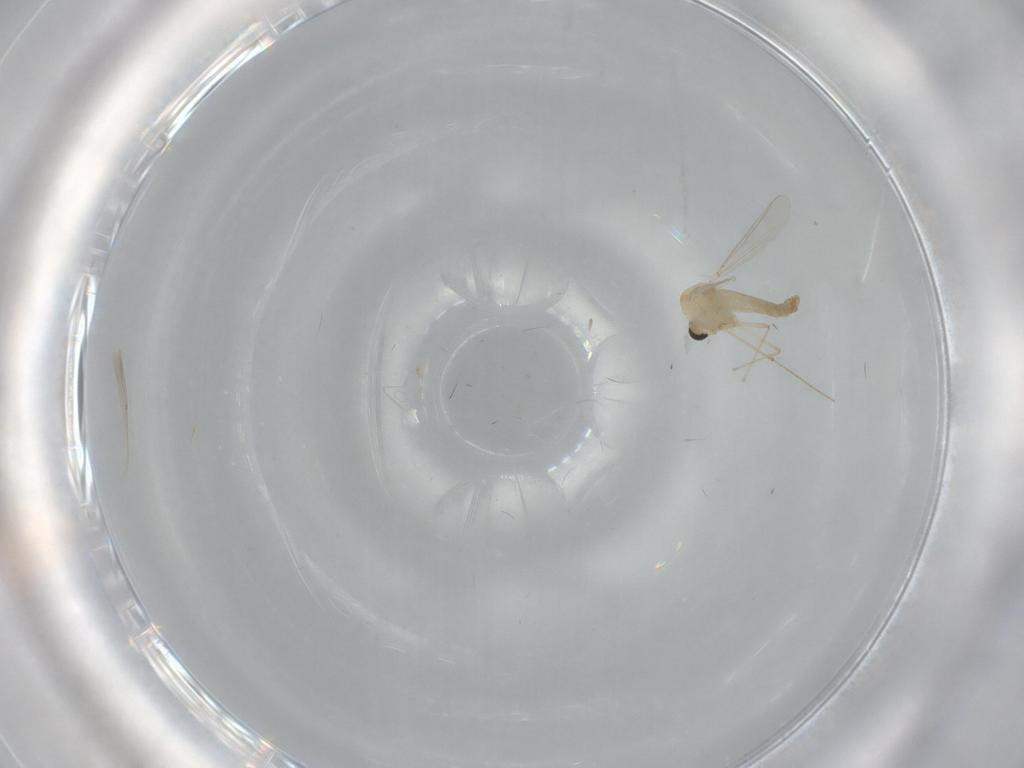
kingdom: Animalia
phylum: Arthropoda
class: Insecta
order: Diptera
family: Chironomidae
